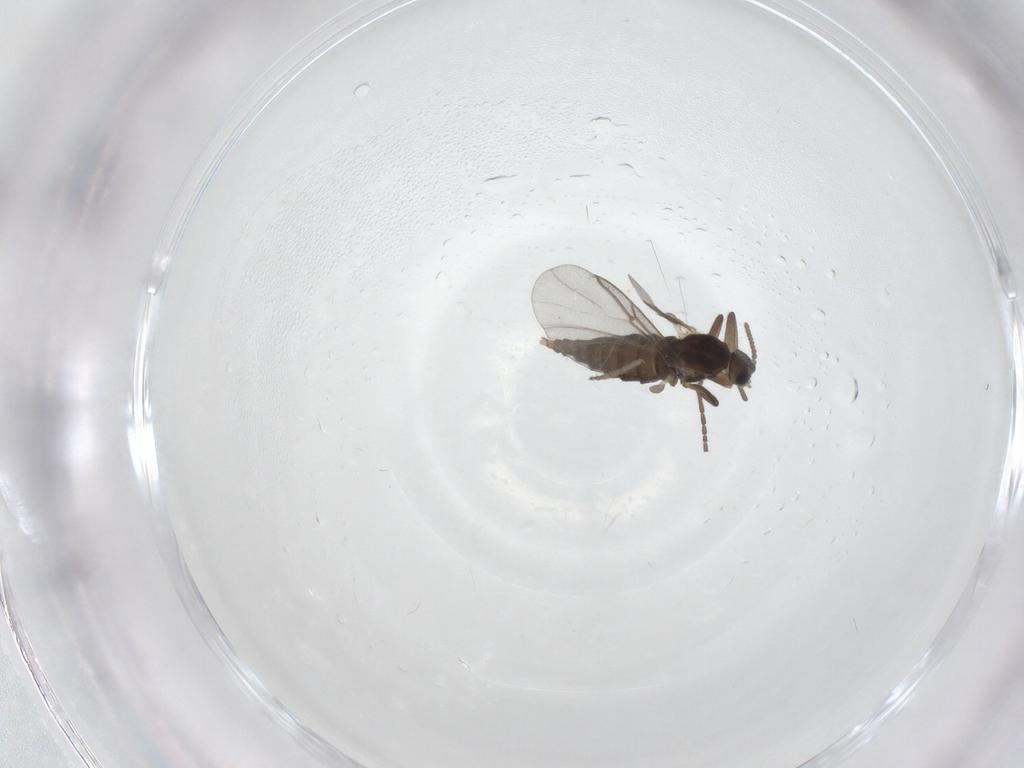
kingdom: Animalia
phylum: Arthropoda
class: Insecta
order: Diptera
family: Cecidomyiidae
